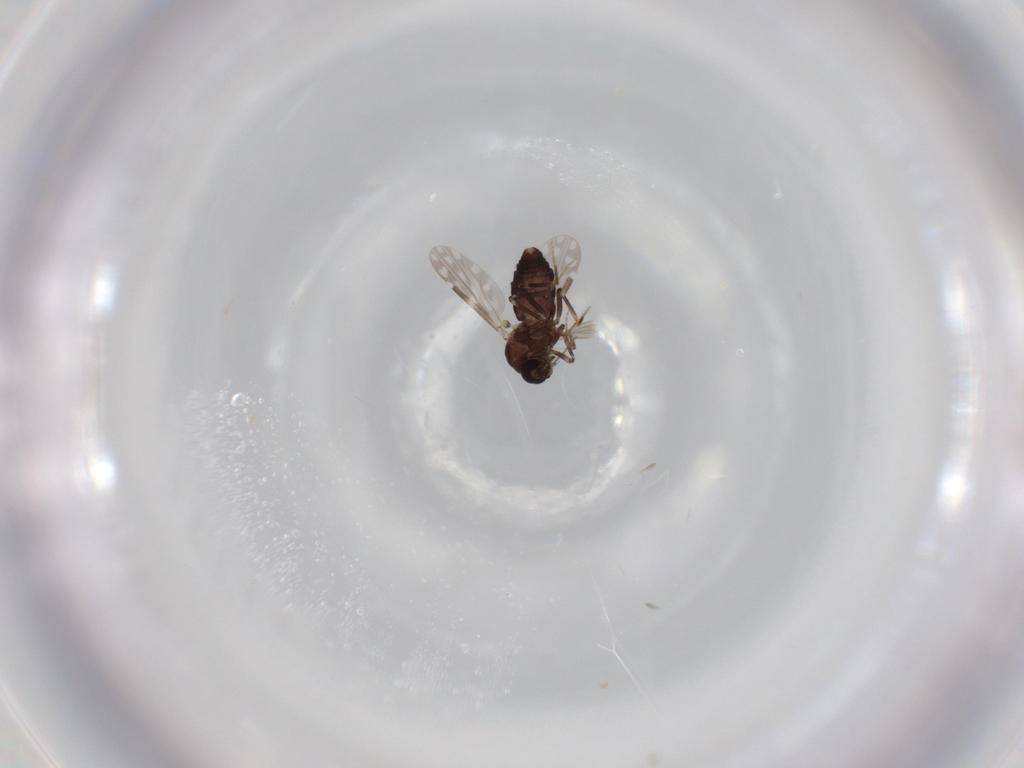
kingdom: Animalia
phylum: Arthropoda
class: Insecta
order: Diptera
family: Ceratopogonidae
